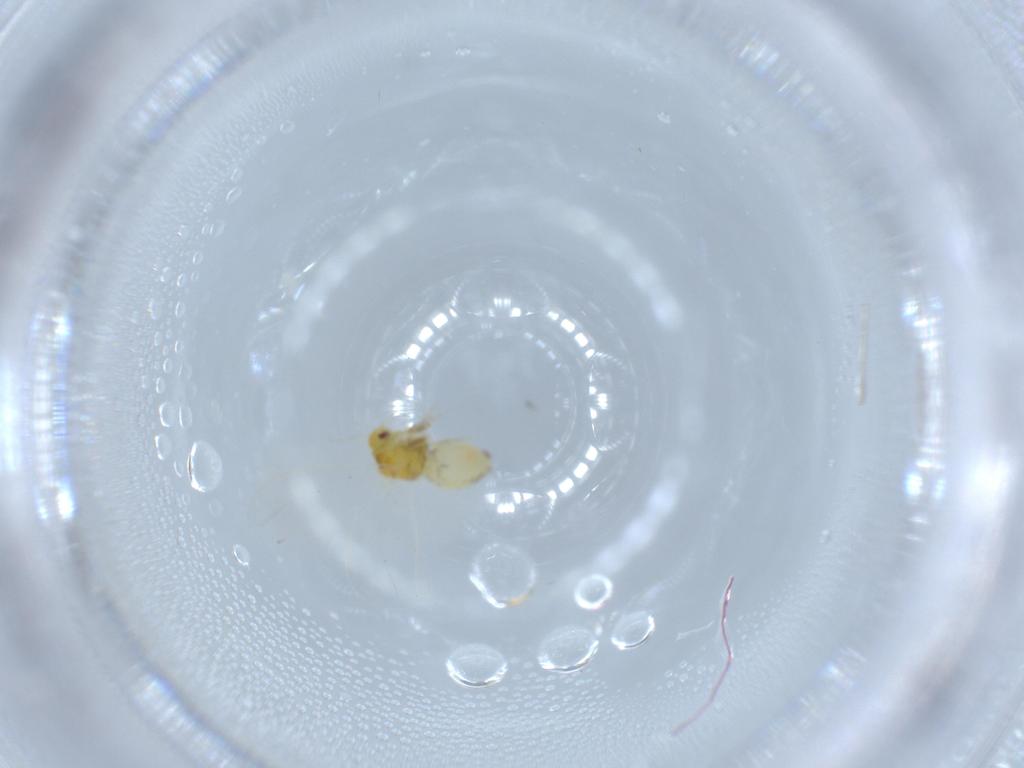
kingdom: Animalia
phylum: Arthropoda
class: Insecta
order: Hemiptera
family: Aleyrodidae
